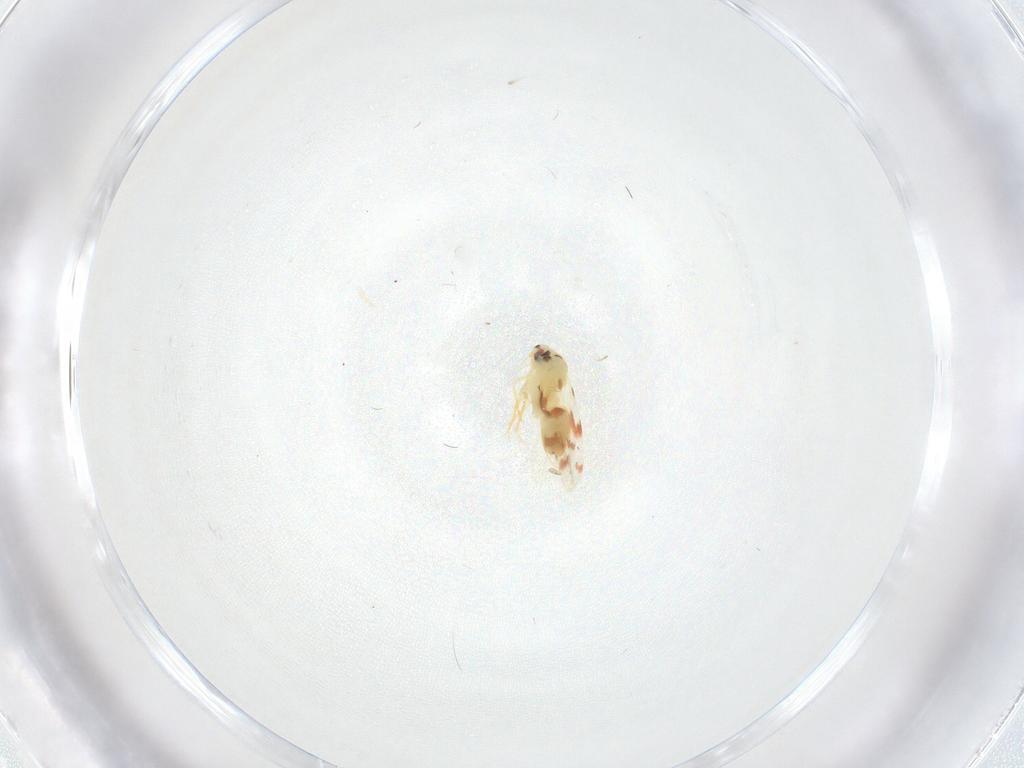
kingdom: Animalia
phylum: Arthropoda
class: Insecta
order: Hemiptera
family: Aleyrodidae
